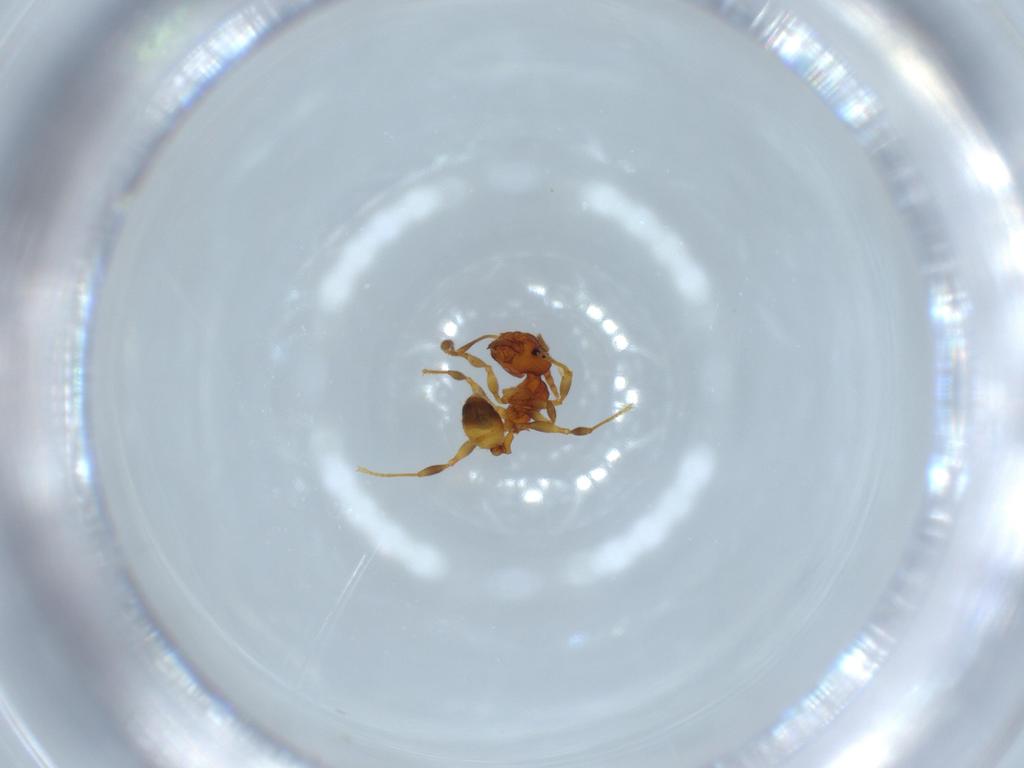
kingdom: Animalia
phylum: Arthropoda
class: Insecta
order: Hymenoptera
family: Formicidae
